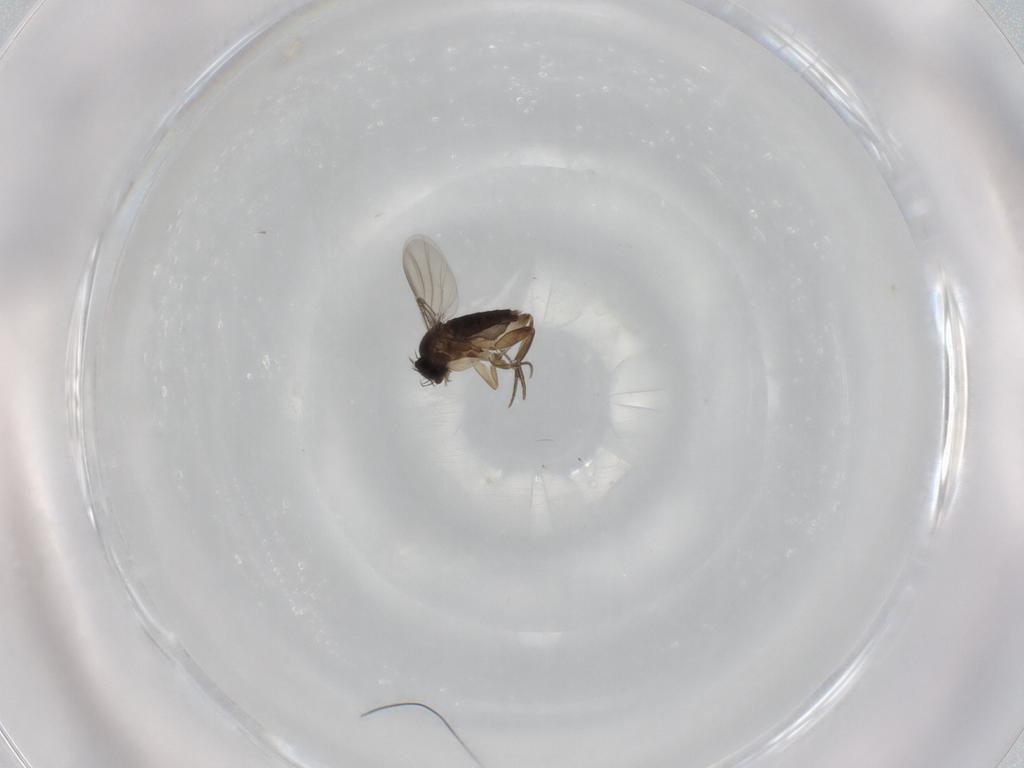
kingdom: Animalia
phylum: Arthropoda
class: Insecta
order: Diptera
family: Phoridae
